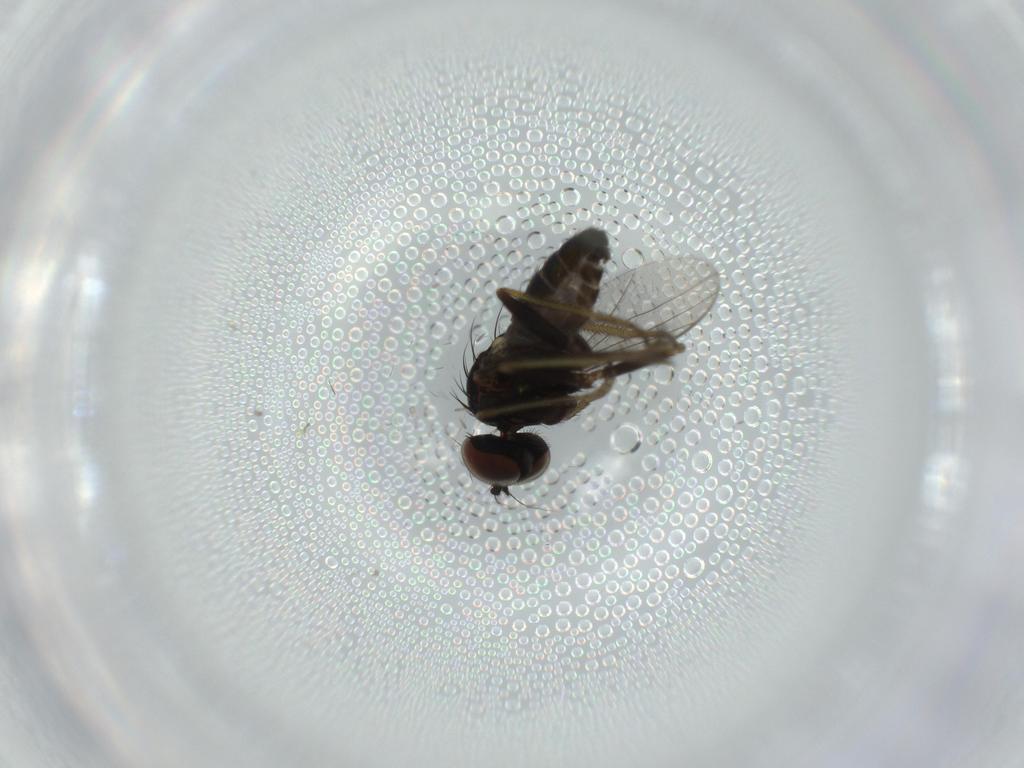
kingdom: Animalia
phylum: Arthropoda
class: Insecta
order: Diptera
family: Dolichopodidae
